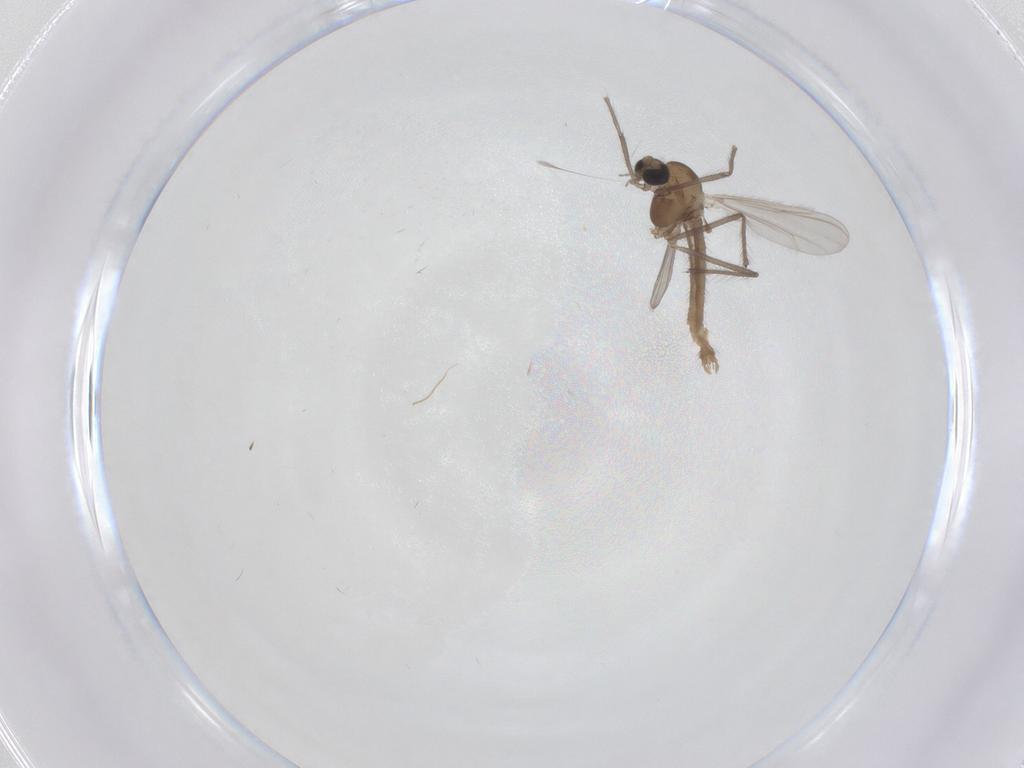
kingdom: Animalia
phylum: Arthropoda
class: Insecta
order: Diptera
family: Chironomidae
